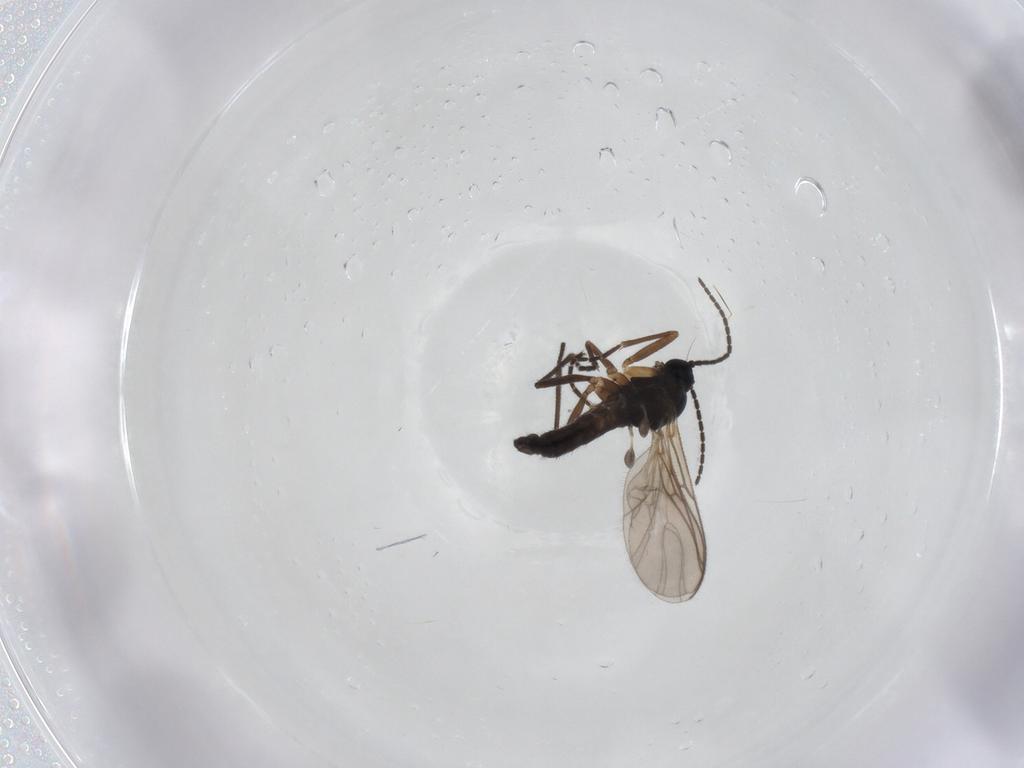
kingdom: Animalia
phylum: Arthropoda
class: Insecta
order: Diptera
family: Sciaridae
